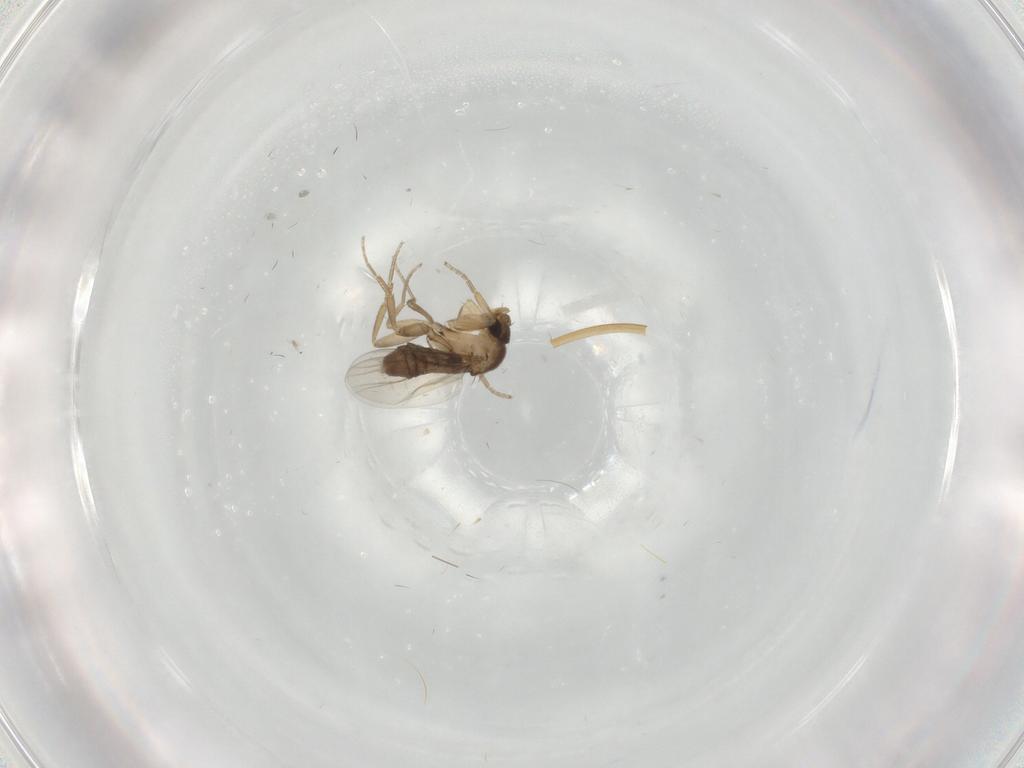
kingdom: Animalia
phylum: Arthropoda
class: Insecta
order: Diptera
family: Phoridae
